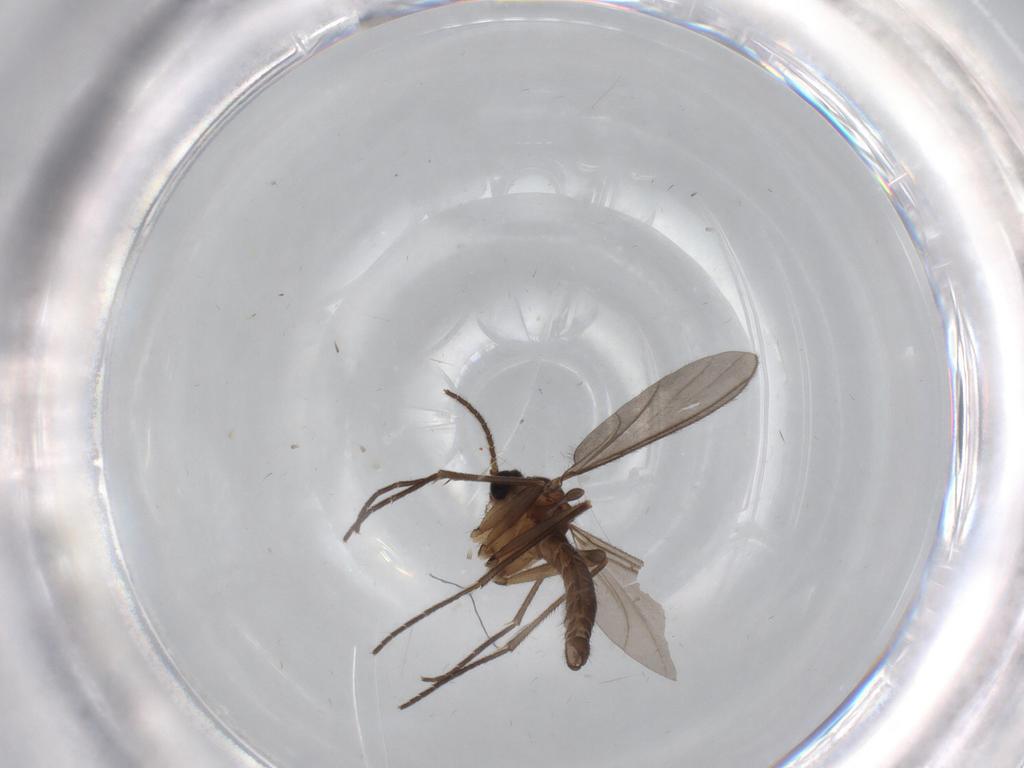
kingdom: Animalia
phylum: Arthropoda
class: Insecta
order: Diptera
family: Sciaridae
